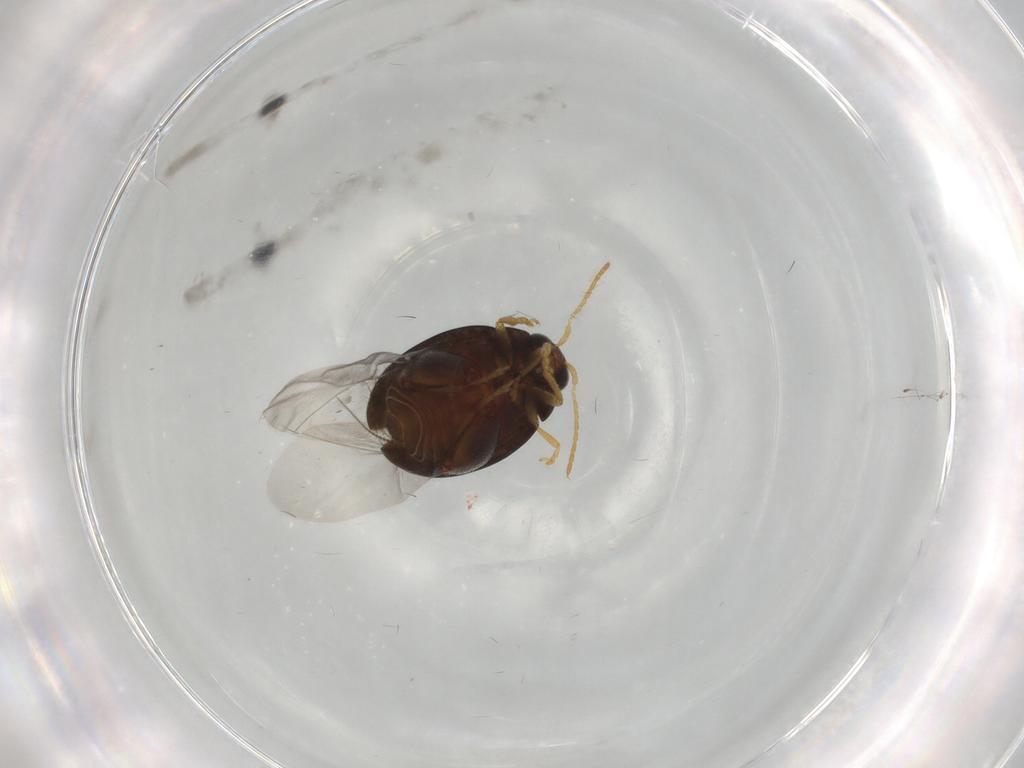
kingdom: Animalia
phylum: Arthropoda
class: Insecta
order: Coleoptera
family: Chrysomelidae
